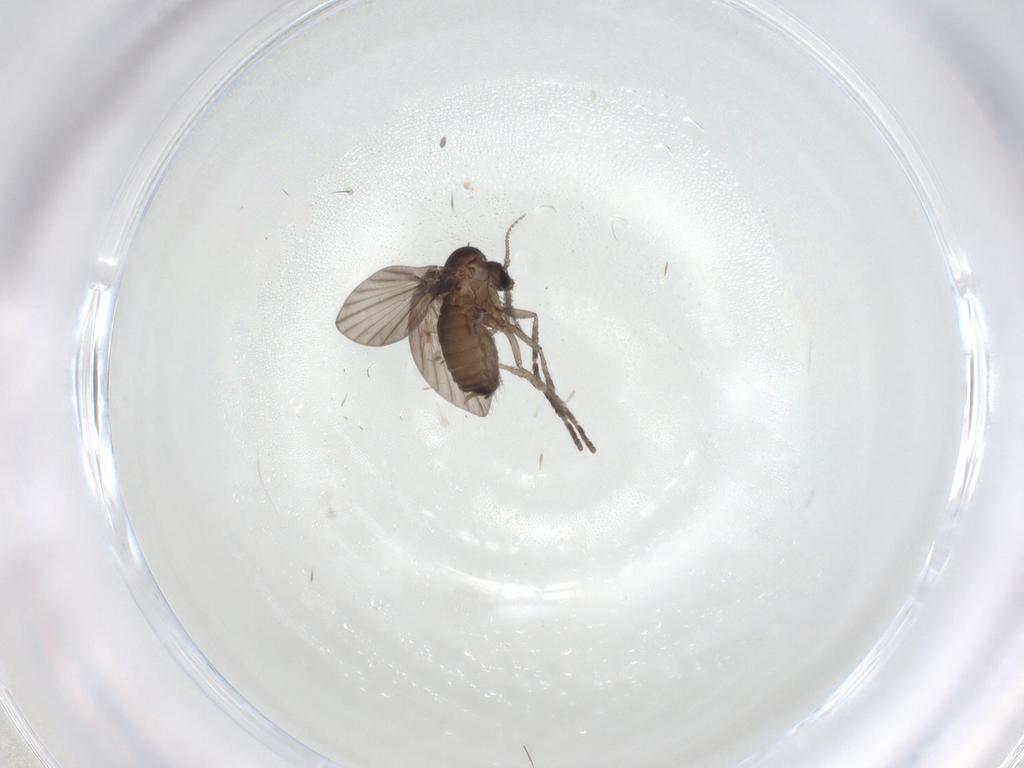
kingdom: Animalia
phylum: Arthropoda
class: Insecta
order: Diptera
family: Psychodidae
